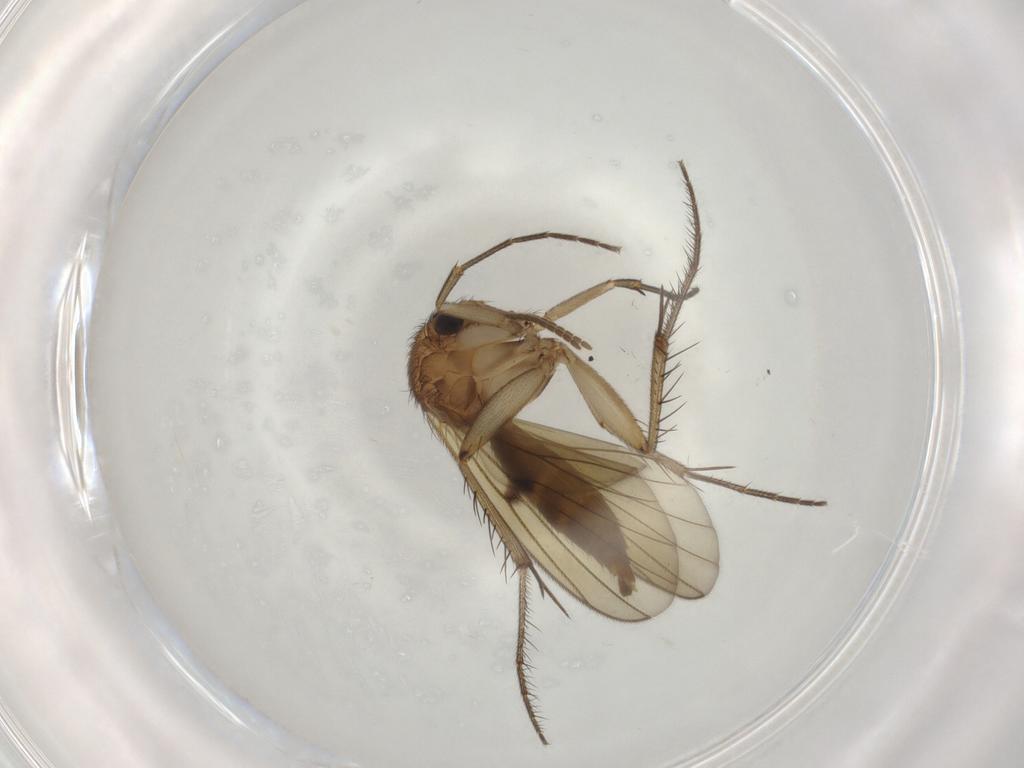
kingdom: Animalia
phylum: Arthropoda
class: Insecta
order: Diptera
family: Mycetophilidae
